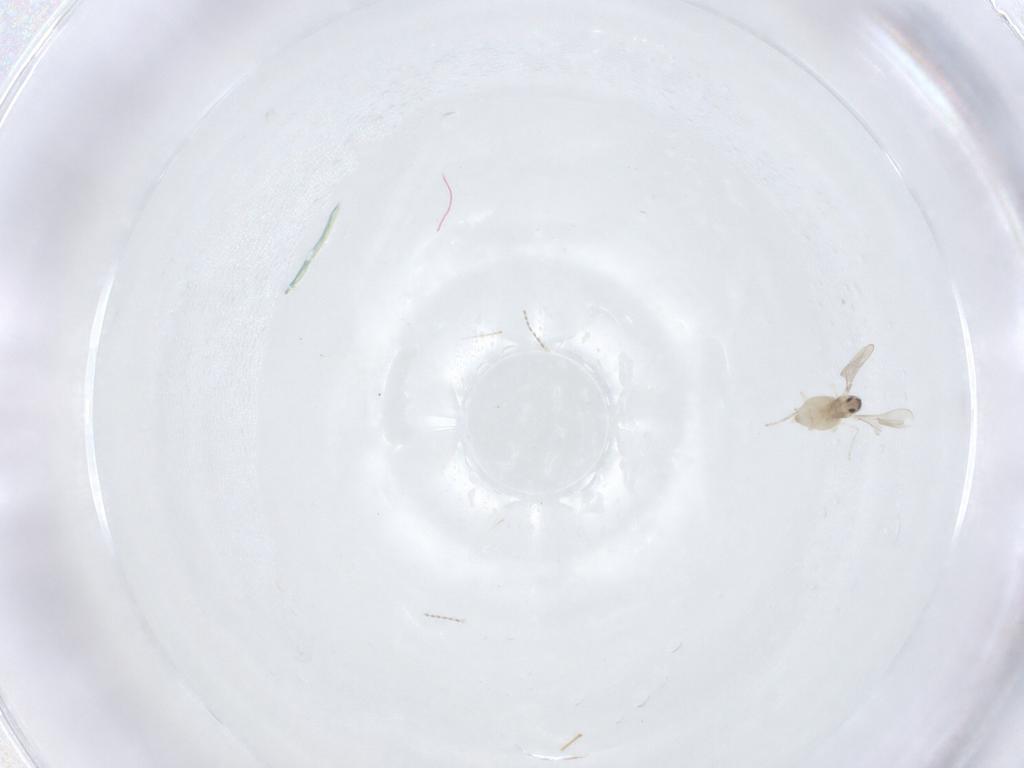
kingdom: Animalia
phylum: Arthropoda
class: Insecta
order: Diptera
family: Cecidomyiidae
